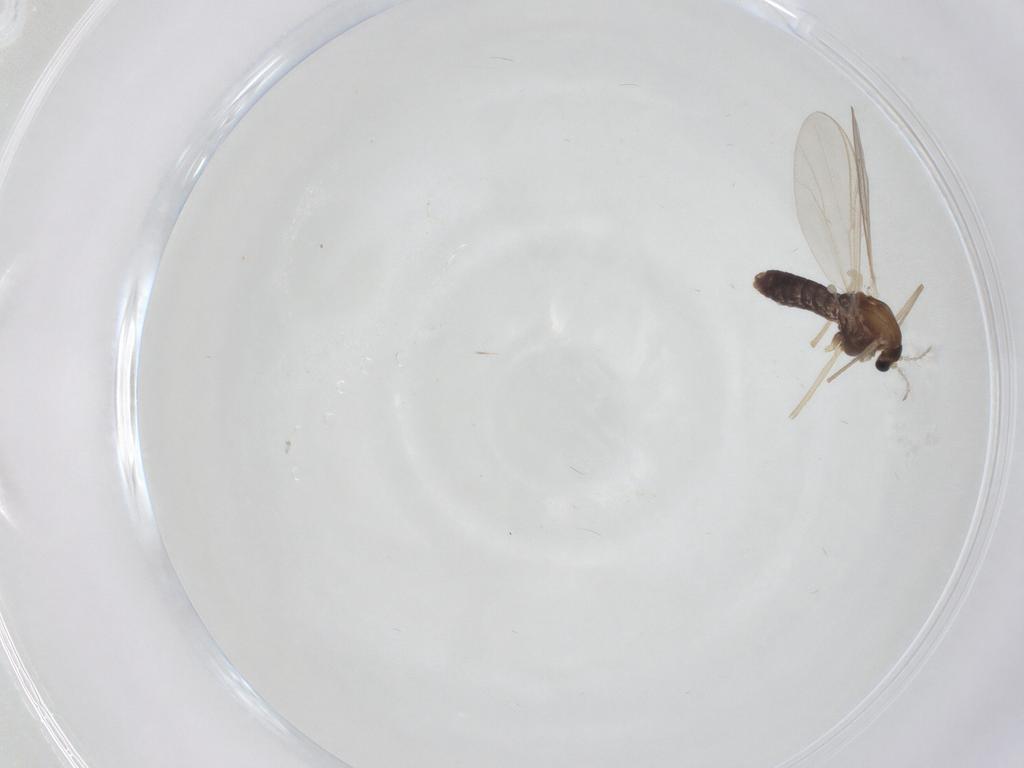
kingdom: Animalia
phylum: Arthropoda
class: Insecta
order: Diptera
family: Chironomidae
